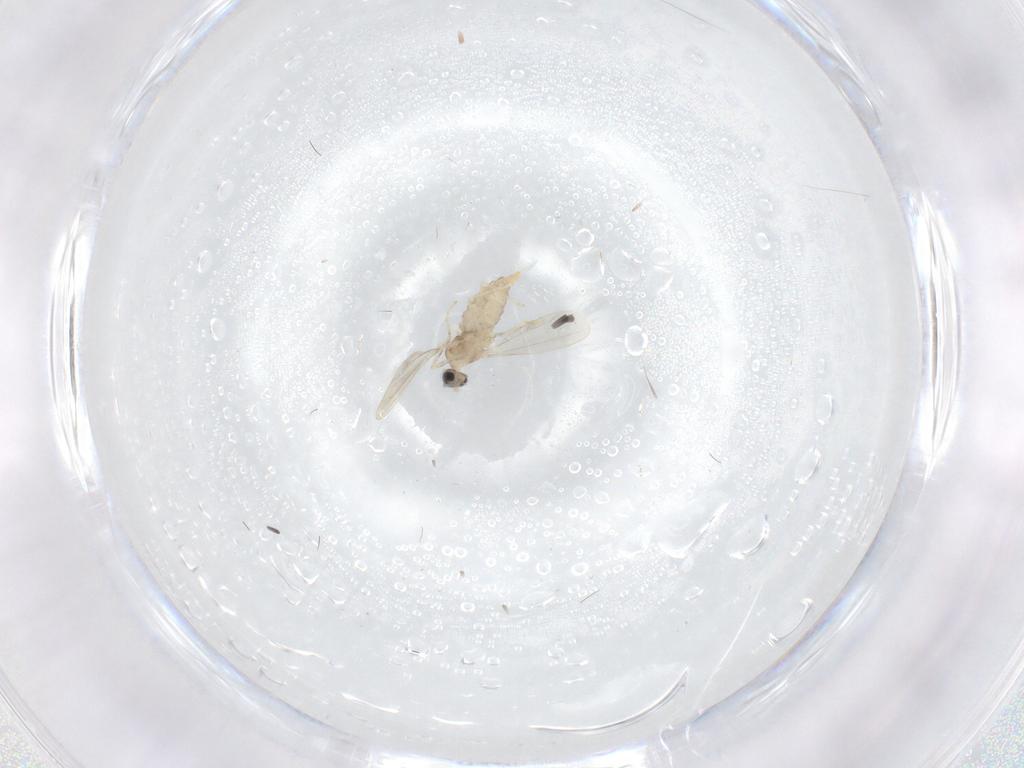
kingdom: Animalia
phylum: Arthropoda
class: Insecta
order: Diptera
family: Cecidomyiidae
